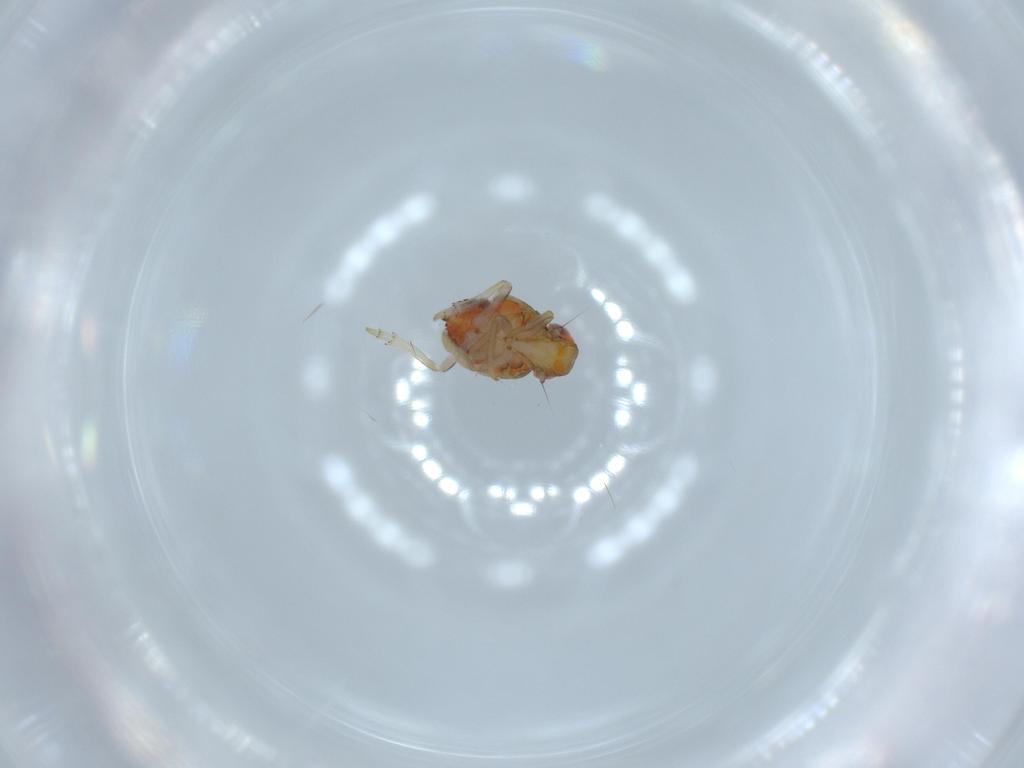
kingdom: Animalia
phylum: Arthropoda
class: Insecta
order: Hemiptera
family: Issidae
